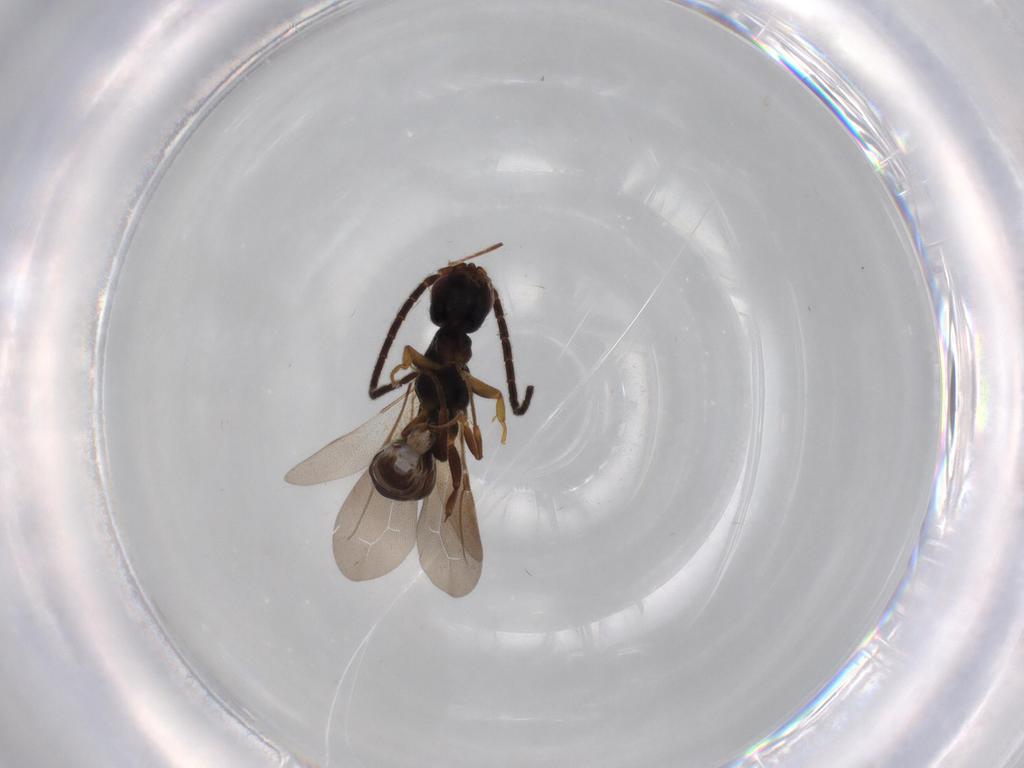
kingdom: Animalia
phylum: Arthropoda
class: Insecta
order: Hymenoptera
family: Bethylidae
